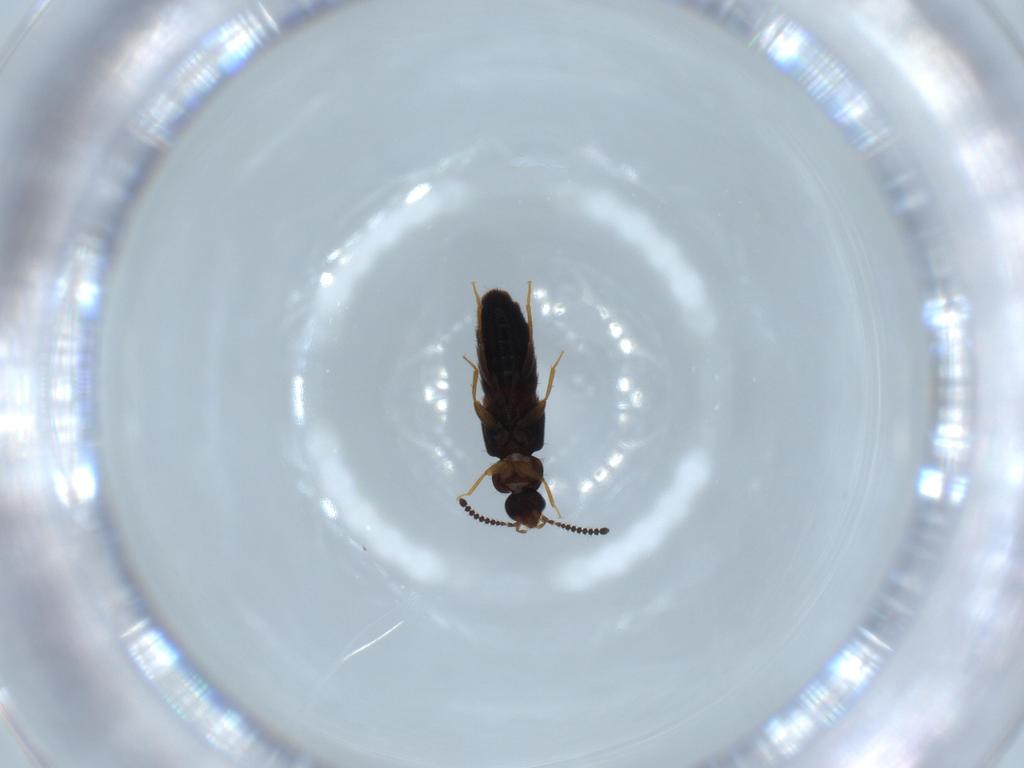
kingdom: Animalia
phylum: Arthropoda
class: Insecta
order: Coleoptera
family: Staphylinidae
